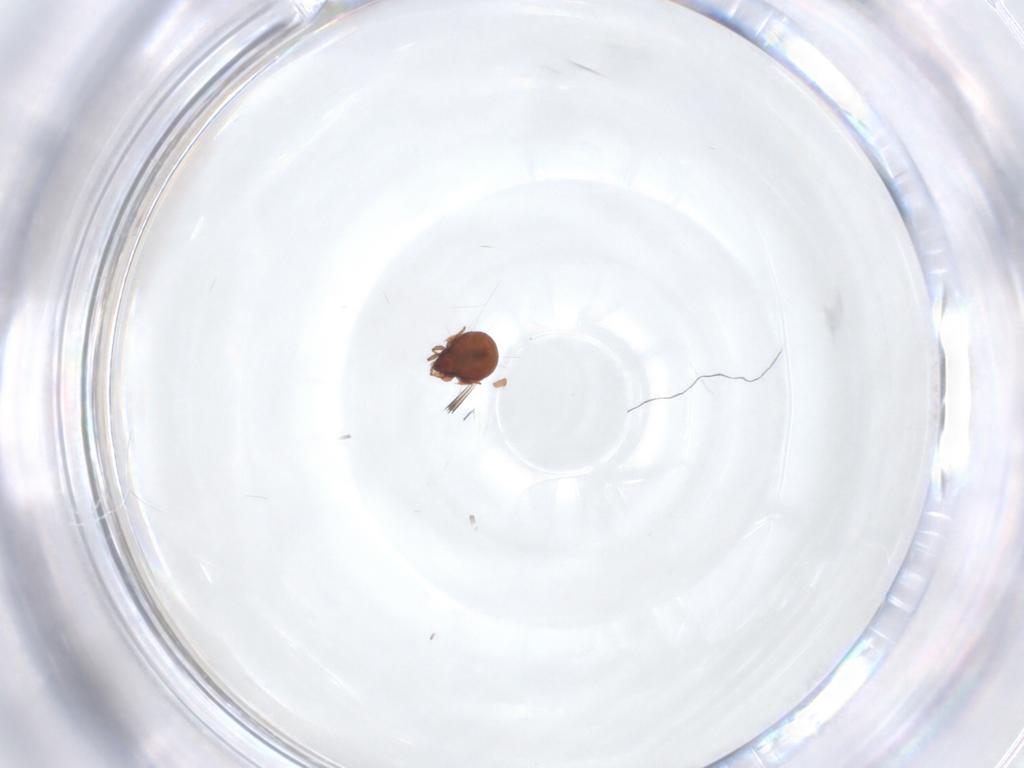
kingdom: Animalia
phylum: Arthropoda
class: Arachnida
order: Sarcoptiformes
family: Haplozetidae
